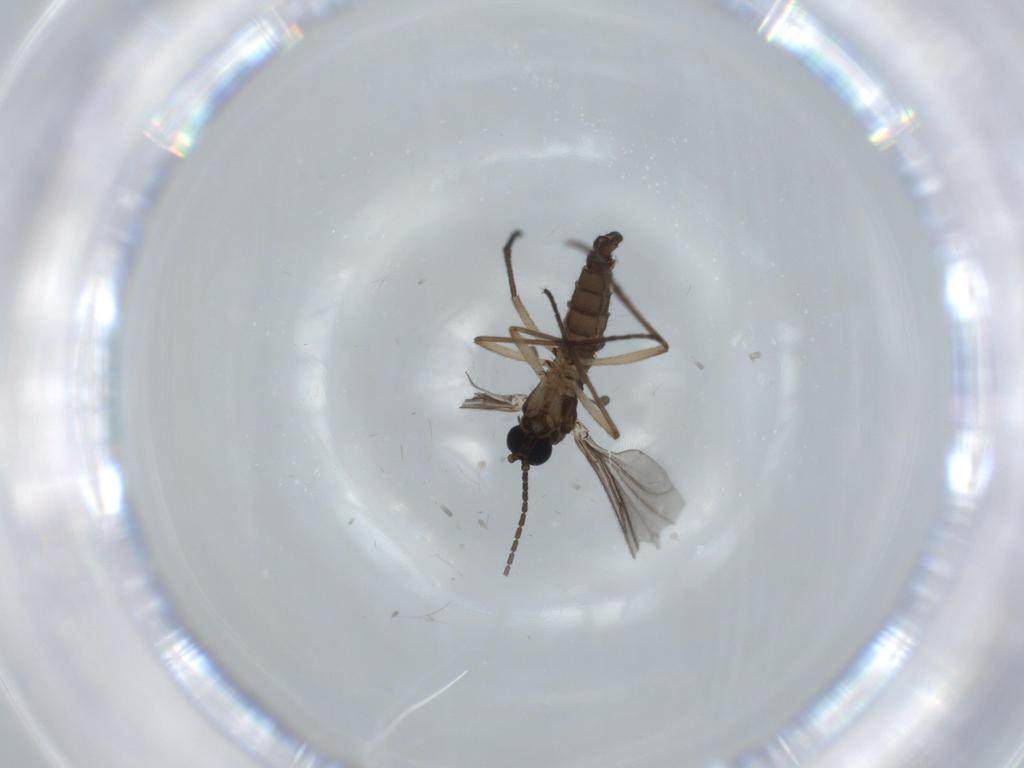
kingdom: Animalia
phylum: Arthropoda
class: Insecta
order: Diptera
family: Sciaridae
